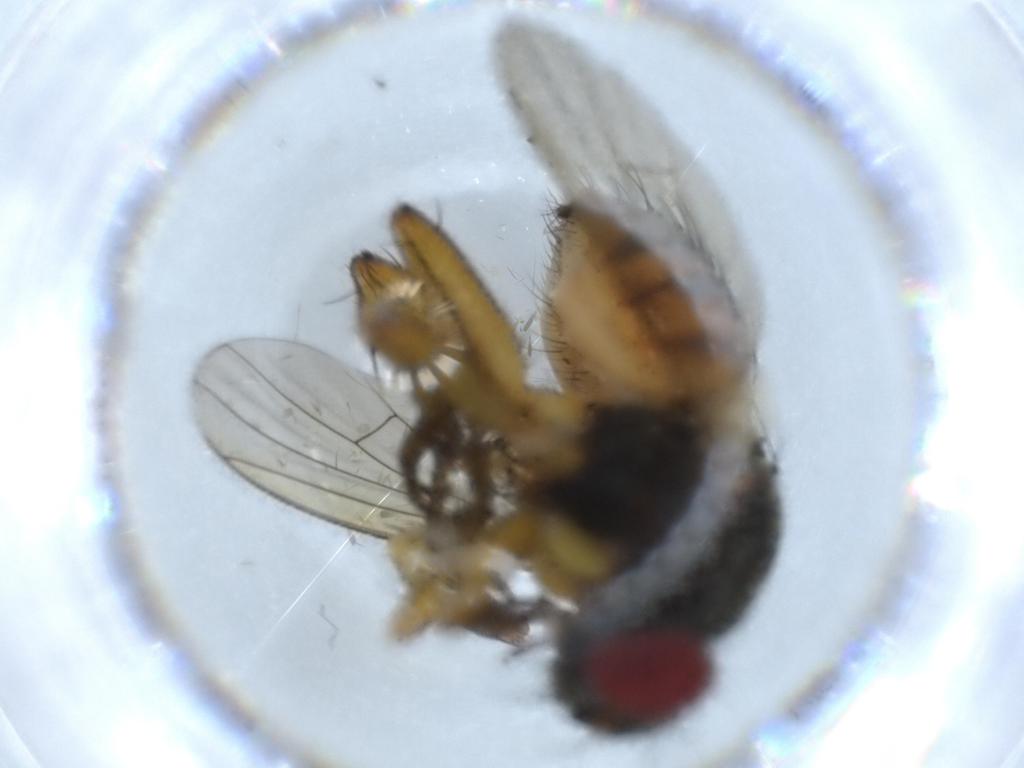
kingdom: Animalia
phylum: Arthropoda
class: Insecta
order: Diptera
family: Muscidae
